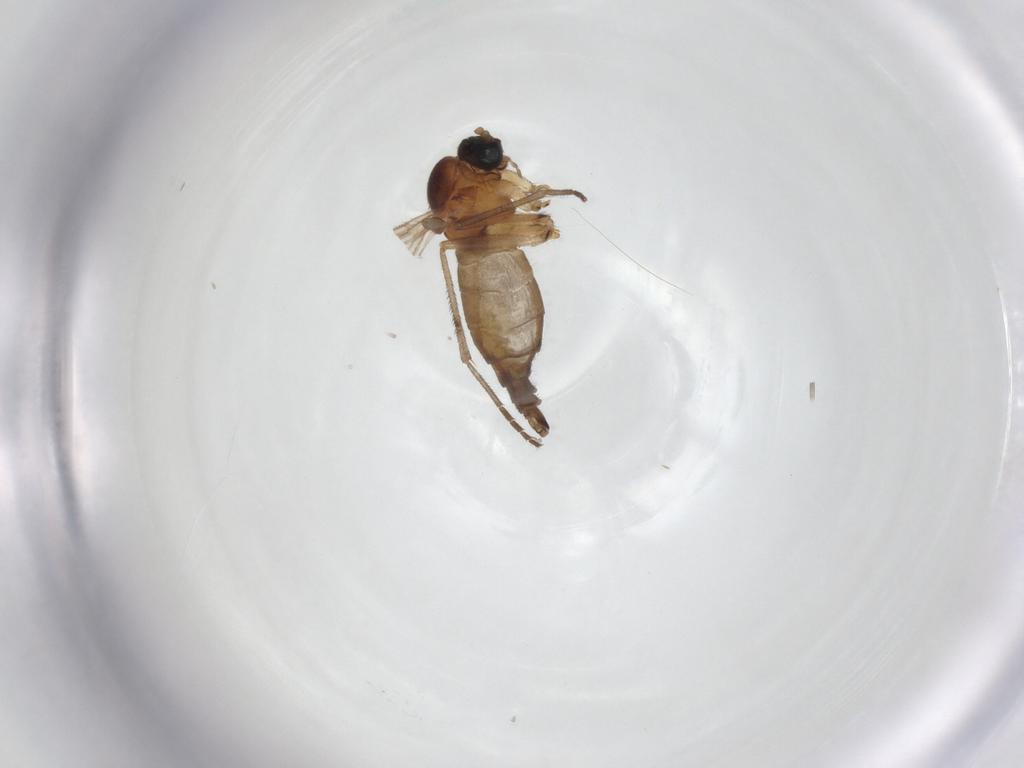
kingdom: Animalia
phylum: Arthropoda
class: Insecta
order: Diptera
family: Sciaridae
